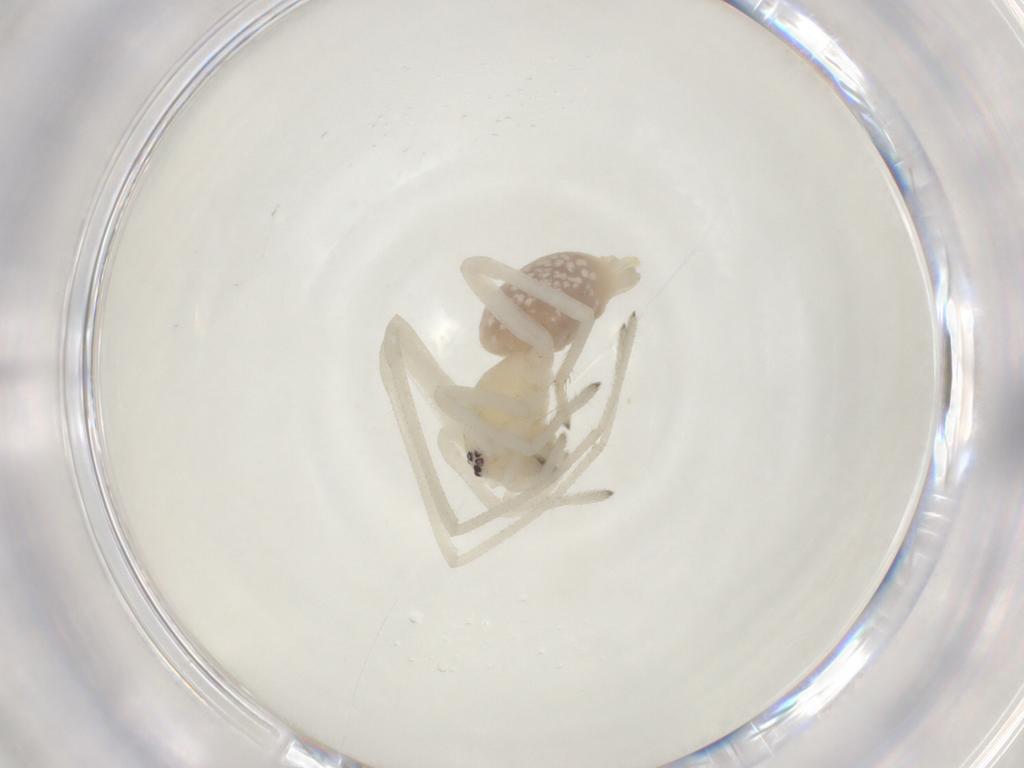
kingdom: Animalia
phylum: Arthropoda
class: Arachnida
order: Araneae
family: Cheiracanthiidae
